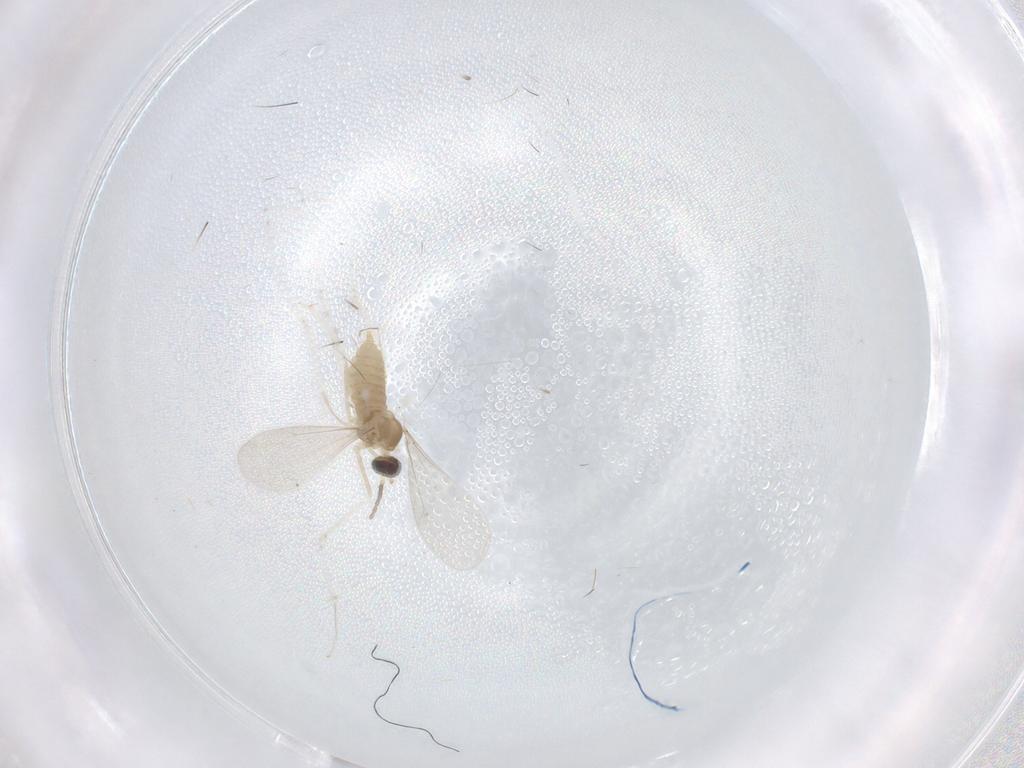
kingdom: Animalia
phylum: Arthropoda
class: Insecta
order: Diptera
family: Cecidomyiidae
